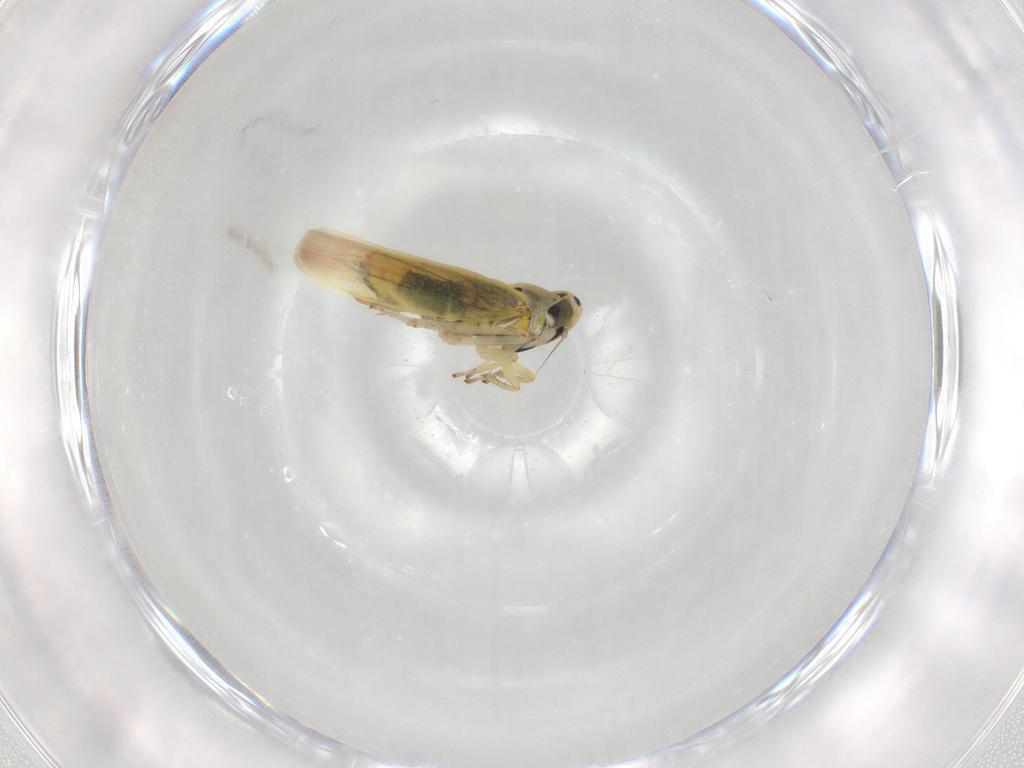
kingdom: Animalia
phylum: Arthropoda
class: Insecta
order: Hemiptera
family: Cicadellidae
